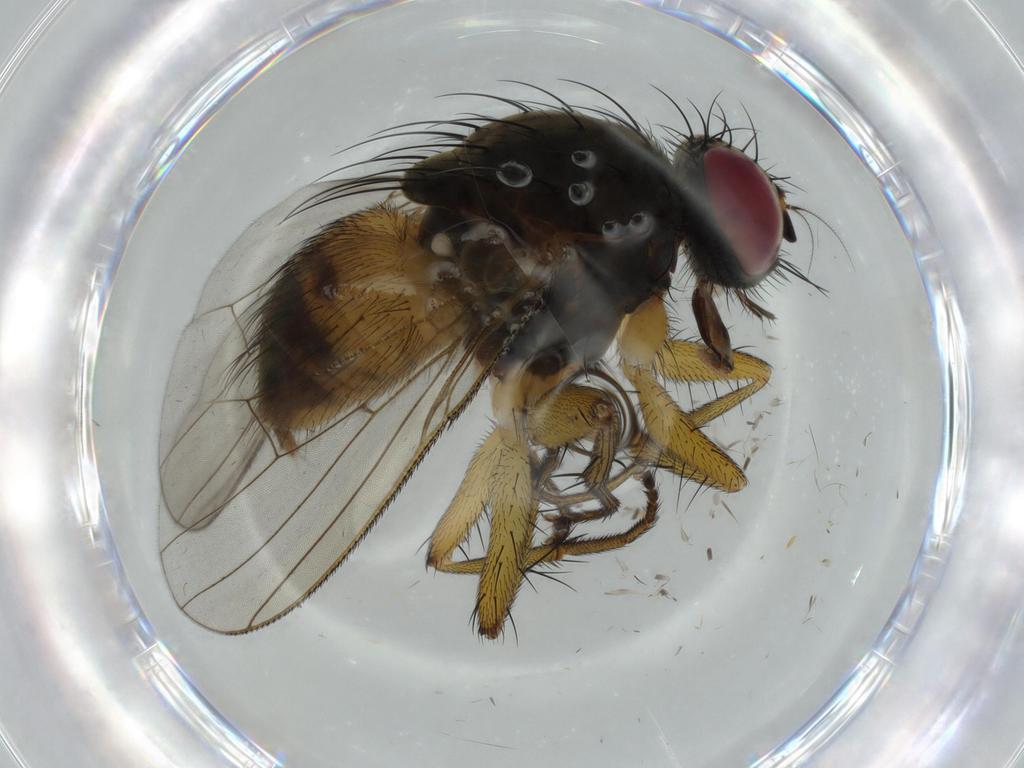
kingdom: Animalia
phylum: Arthropoda
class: Insecta
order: Diptera
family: Muscidae
